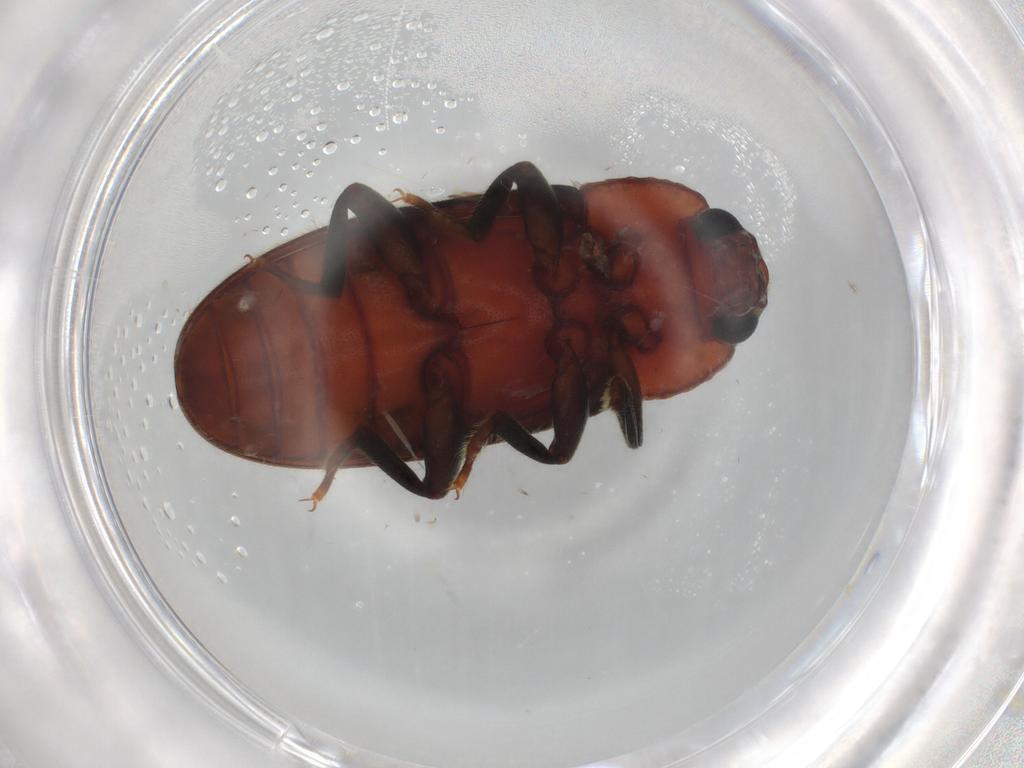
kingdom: Animalia
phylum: Arthropoda
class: Insecta
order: Coleoptera
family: Erotylidae
